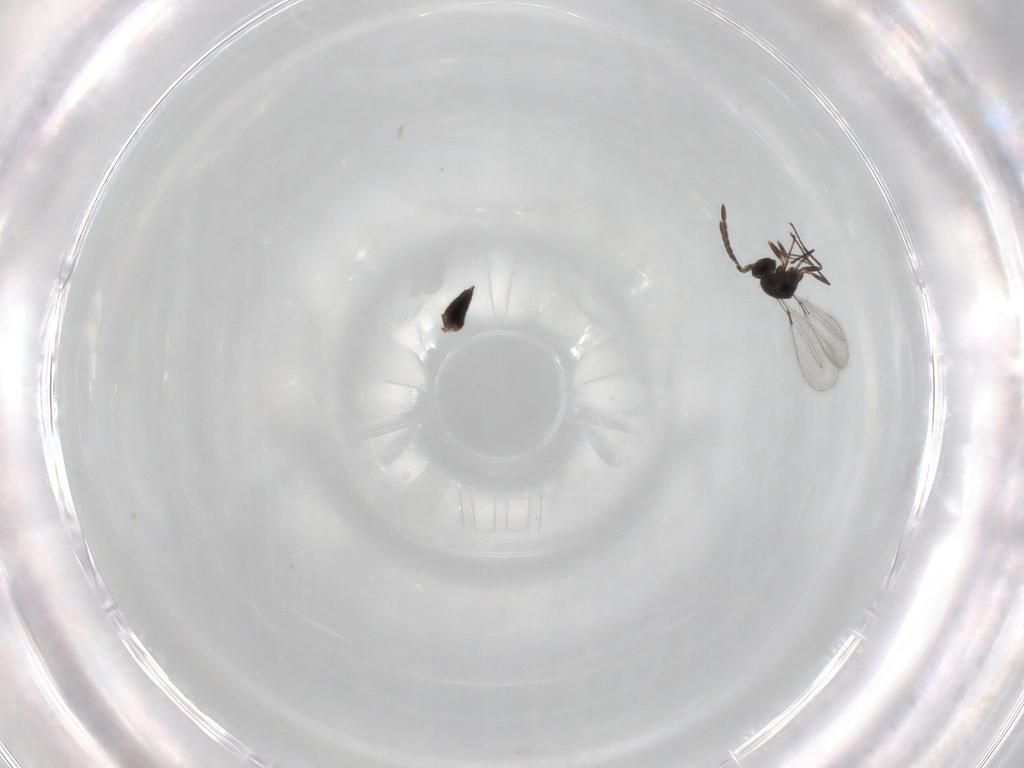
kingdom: Animalia
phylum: Arthropoda
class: Insecta
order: Hymenoptera
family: Mymaridae
